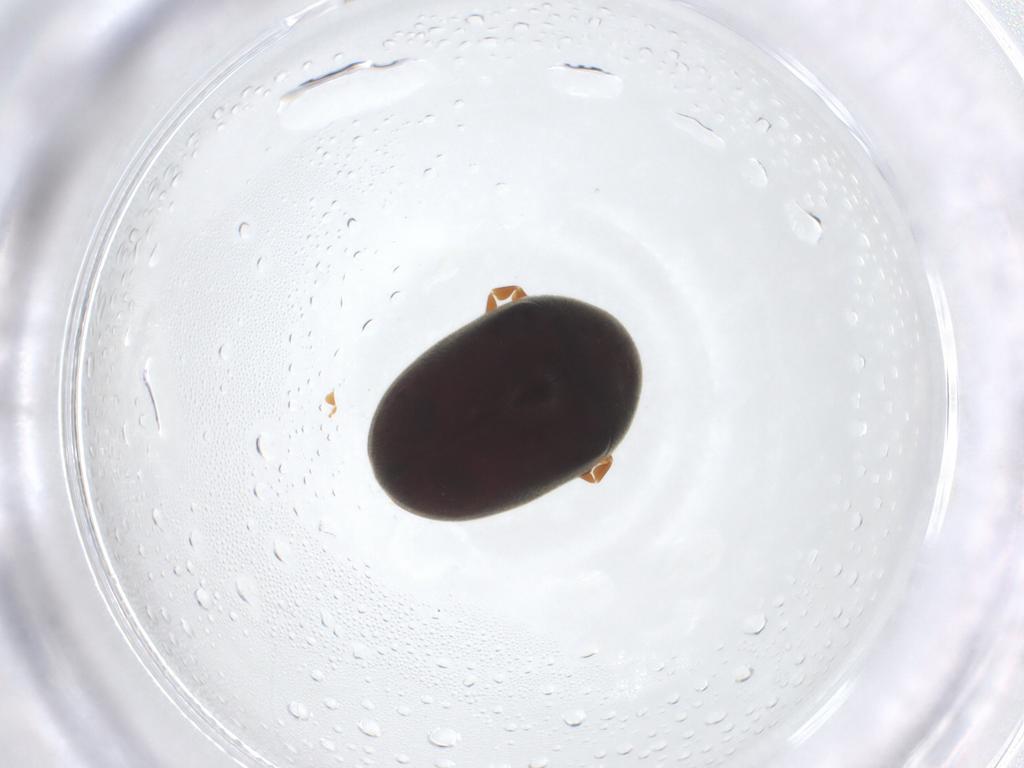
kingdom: Animalia
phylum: Arthropoda
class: Insecta
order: Coleoptera
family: Ptinidae
